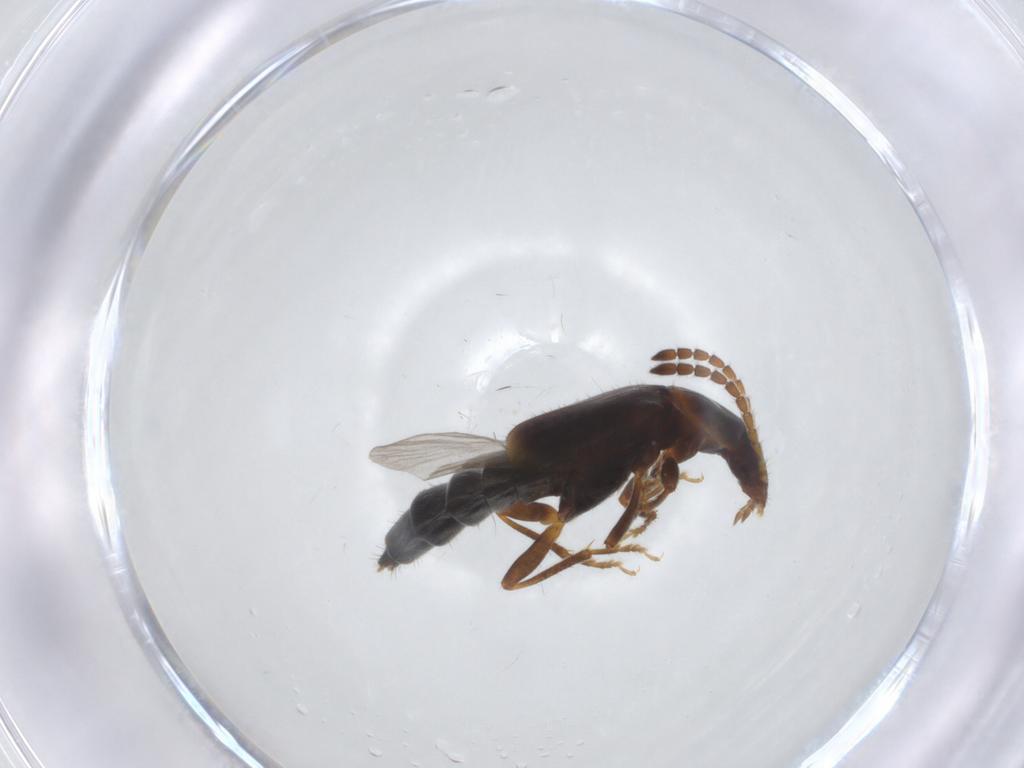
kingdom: Animalia
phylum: Arthropoda
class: Insecta
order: Coleoptera
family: Staphylinidae
